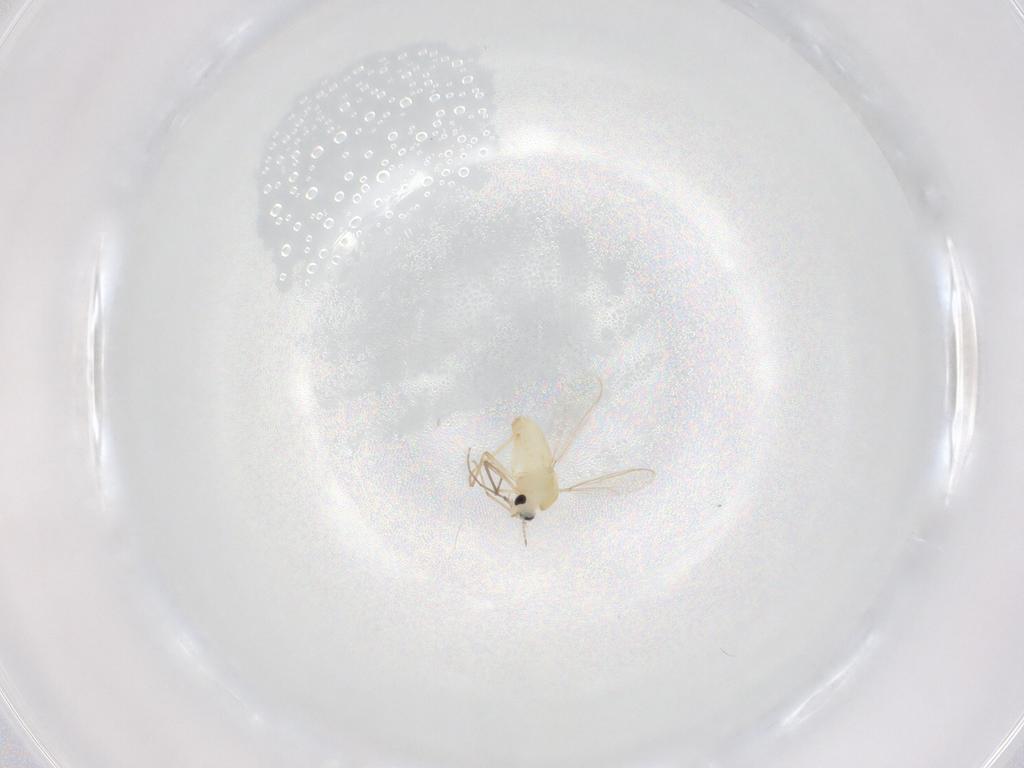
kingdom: Animalia
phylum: Arthropoda
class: Insecta
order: Diptera
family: Chironomidae
